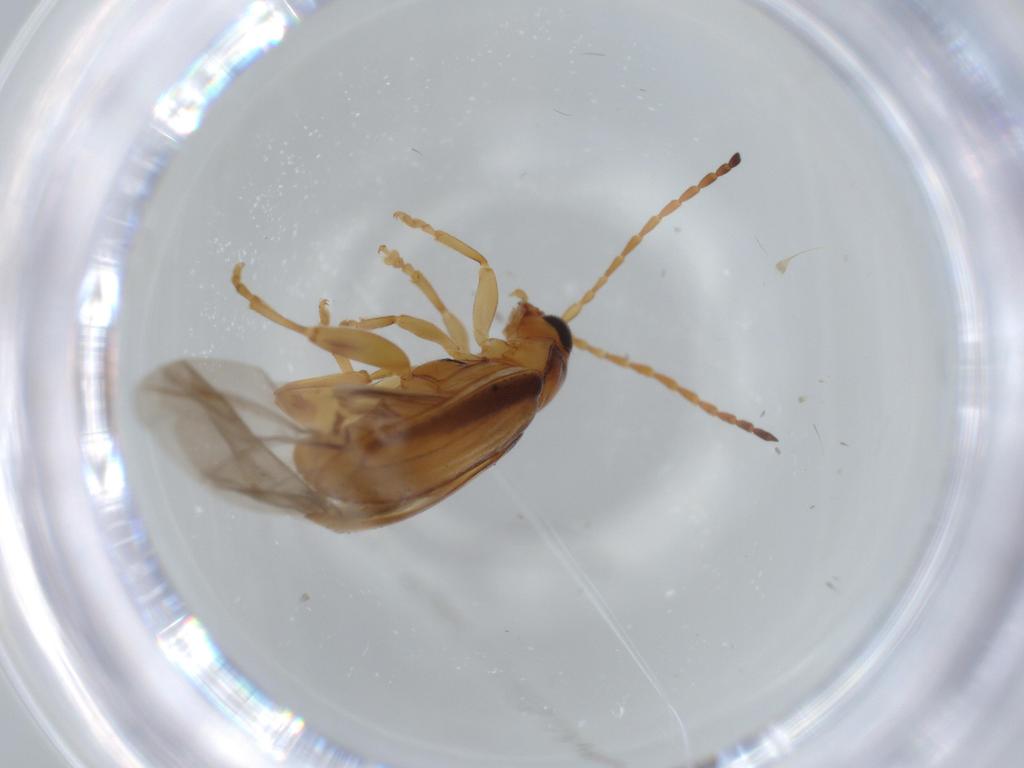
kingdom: Animalia
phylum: Arthropoda
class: Insecta
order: Coleoptera
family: Chrysomelidae
